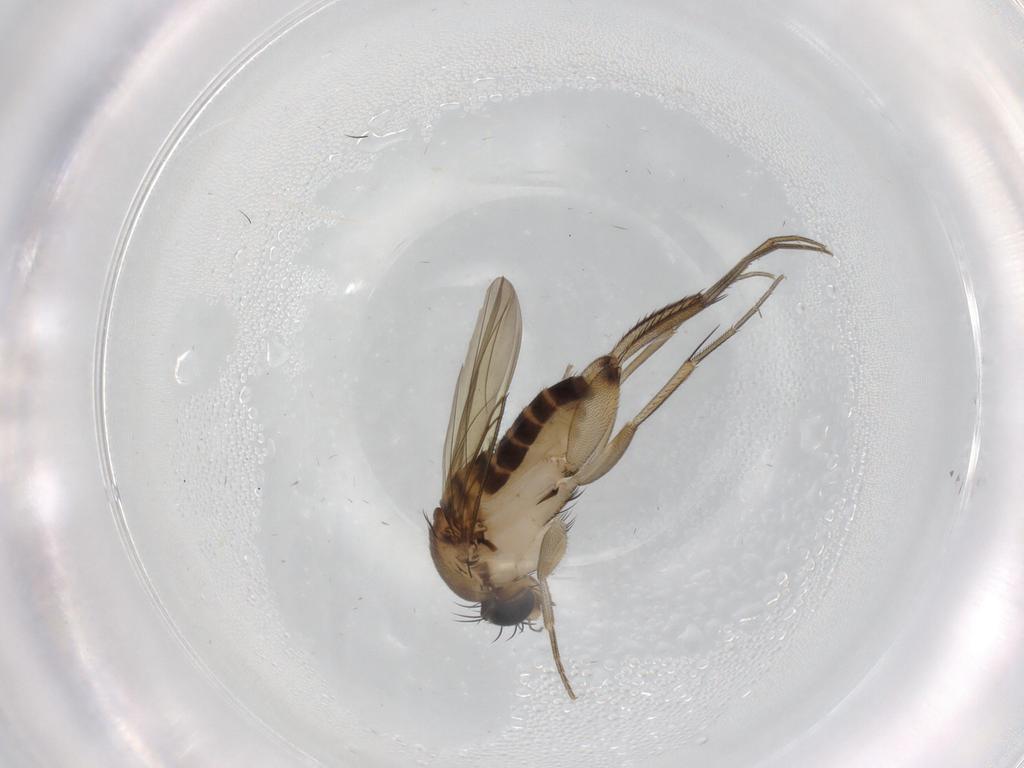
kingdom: Animalia
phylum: Arthropoda
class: Insecta
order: Diptera
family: Phoridae
